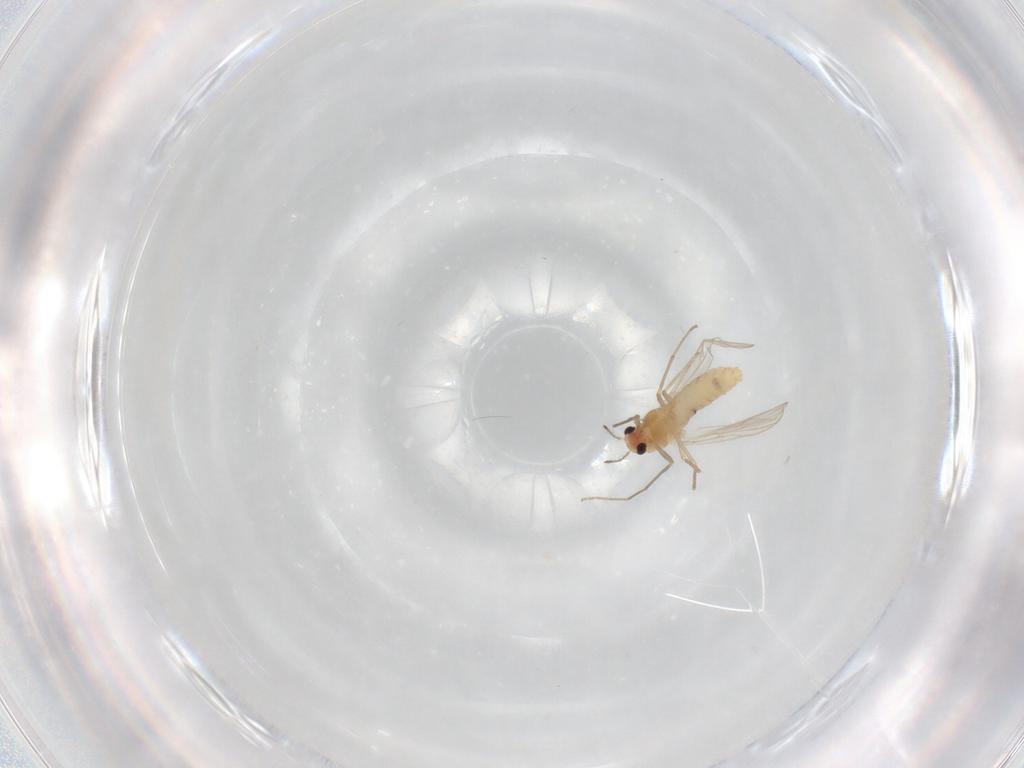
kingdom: Animalia
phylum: Arthropoda
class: Insecta
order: Diptera
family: Chironomidae
